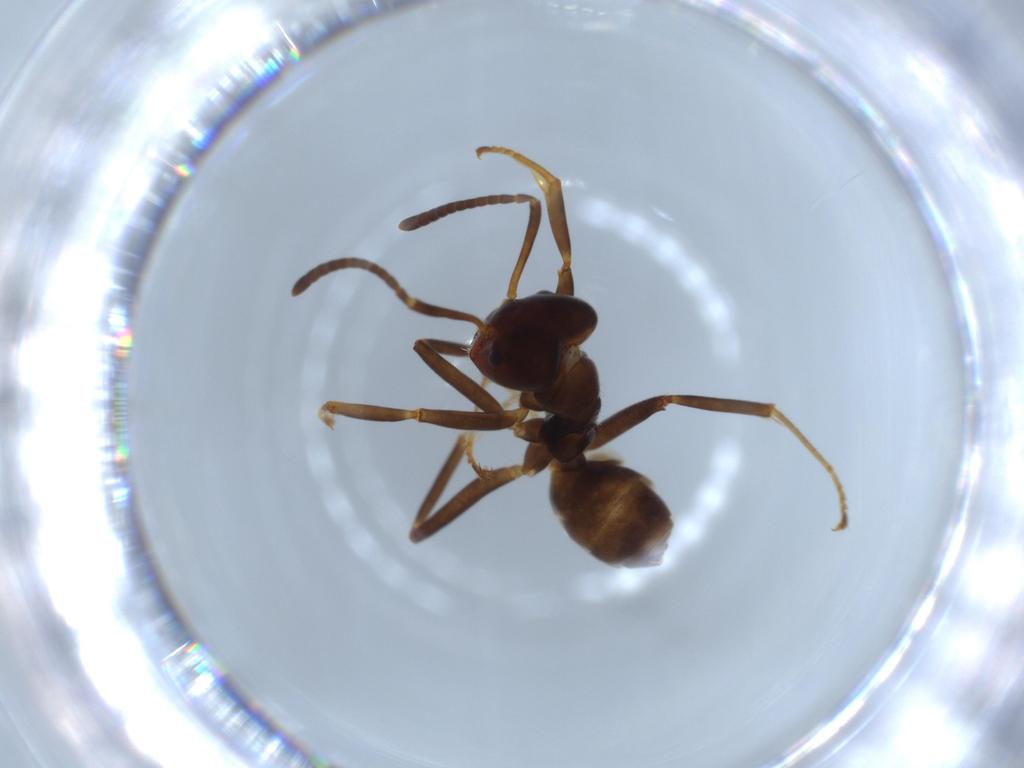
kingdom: Animalia
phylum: Arthropoda
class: Insecta
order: Hymenoptera
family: Formicidae
